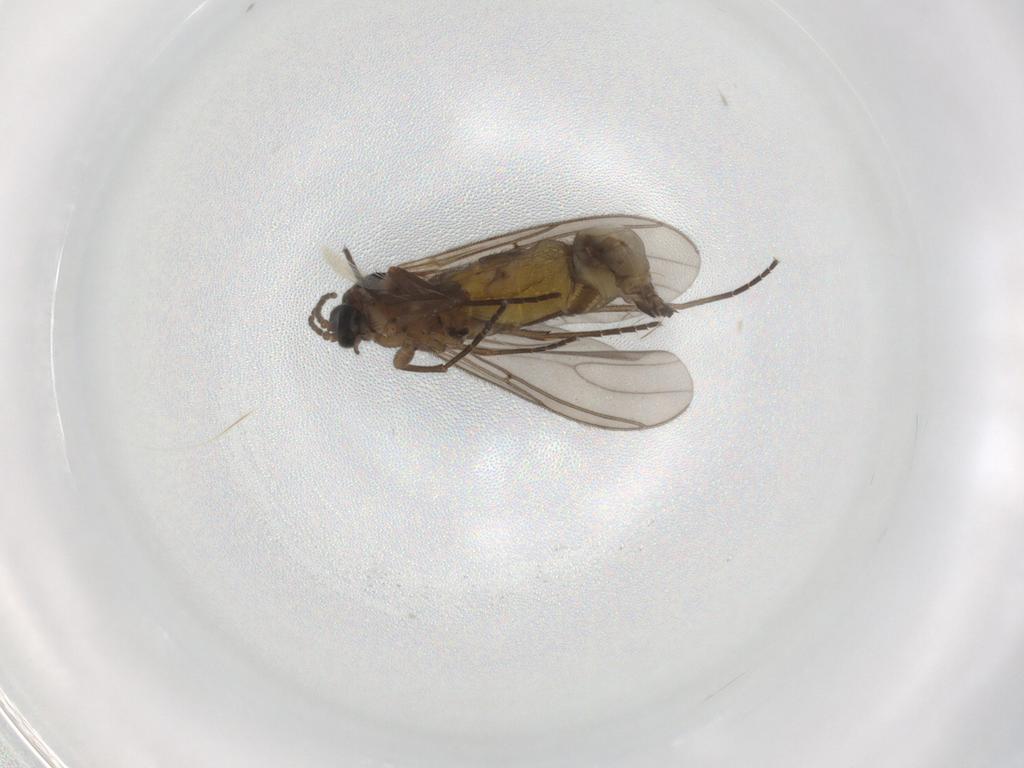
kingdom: Animalia
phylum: Arthropoda
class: Insecta
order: Diptera
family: Sciaridae
